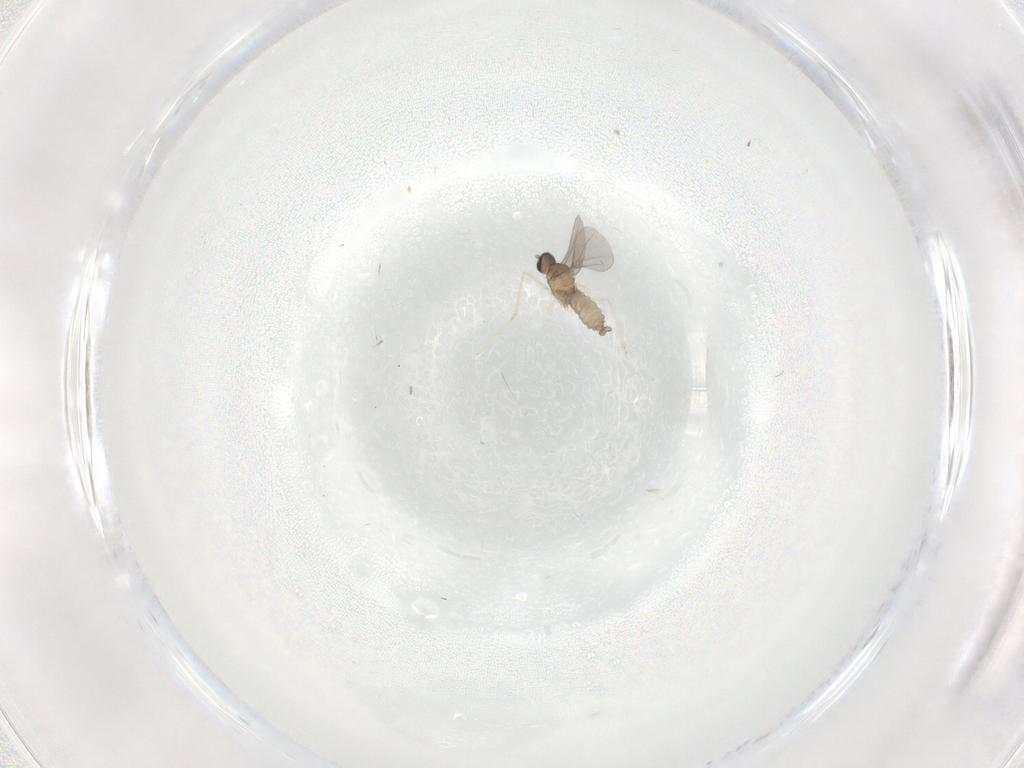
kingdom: Animalia
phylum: Arthropoda
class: Insecta
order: Diptera
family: Cecidomyiidae
